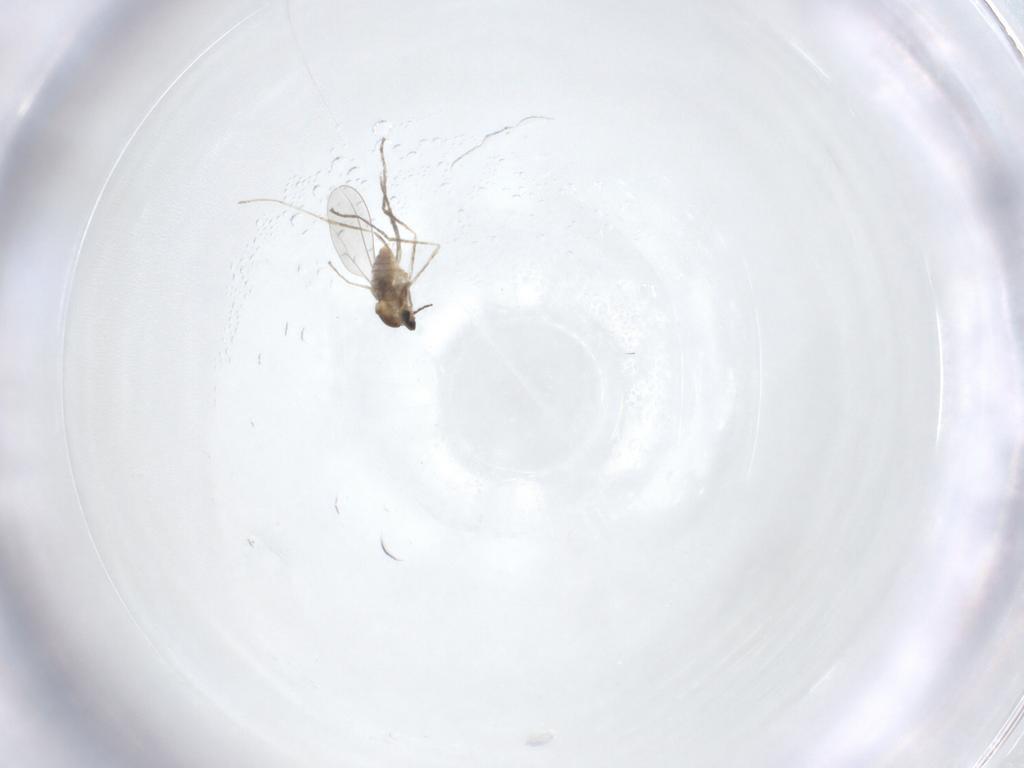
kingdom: Animalia
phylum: Arthropoda
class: Insecta
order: Diptera
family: Cecidomyiidae
